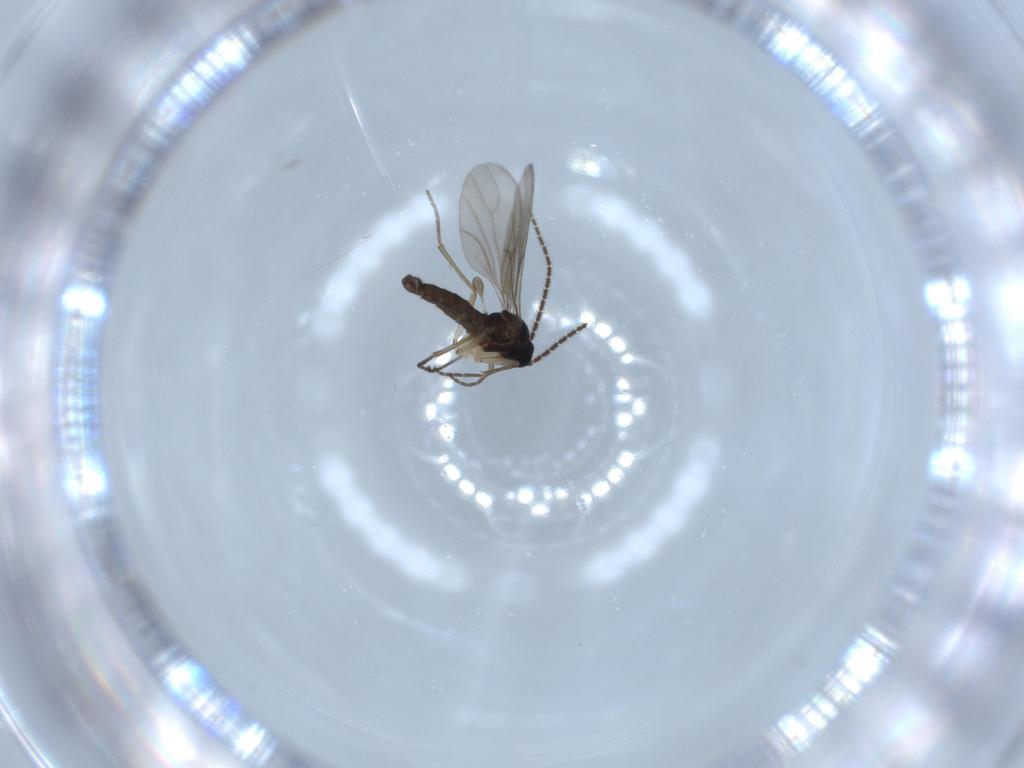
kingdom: Animalia
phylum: Arthropoda
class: Insecta
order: Diptera
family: Sciaridae
